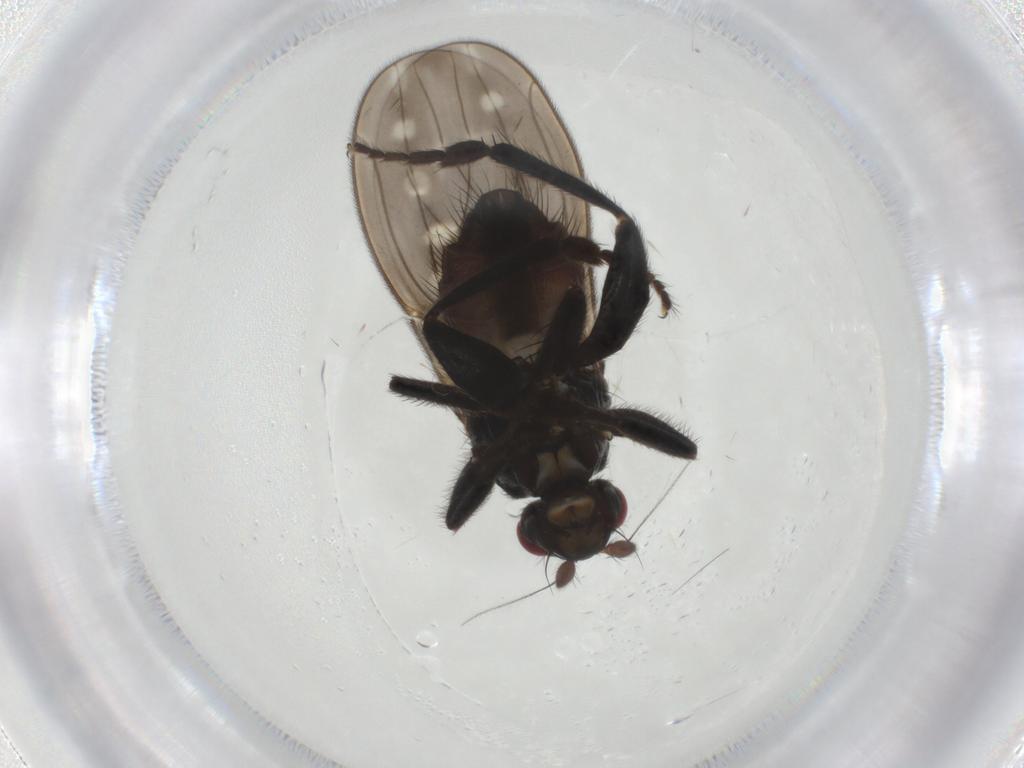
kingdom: Animalia
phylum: Arthropoda
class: Insecta
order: Diptera
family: Sphaeroceridae
